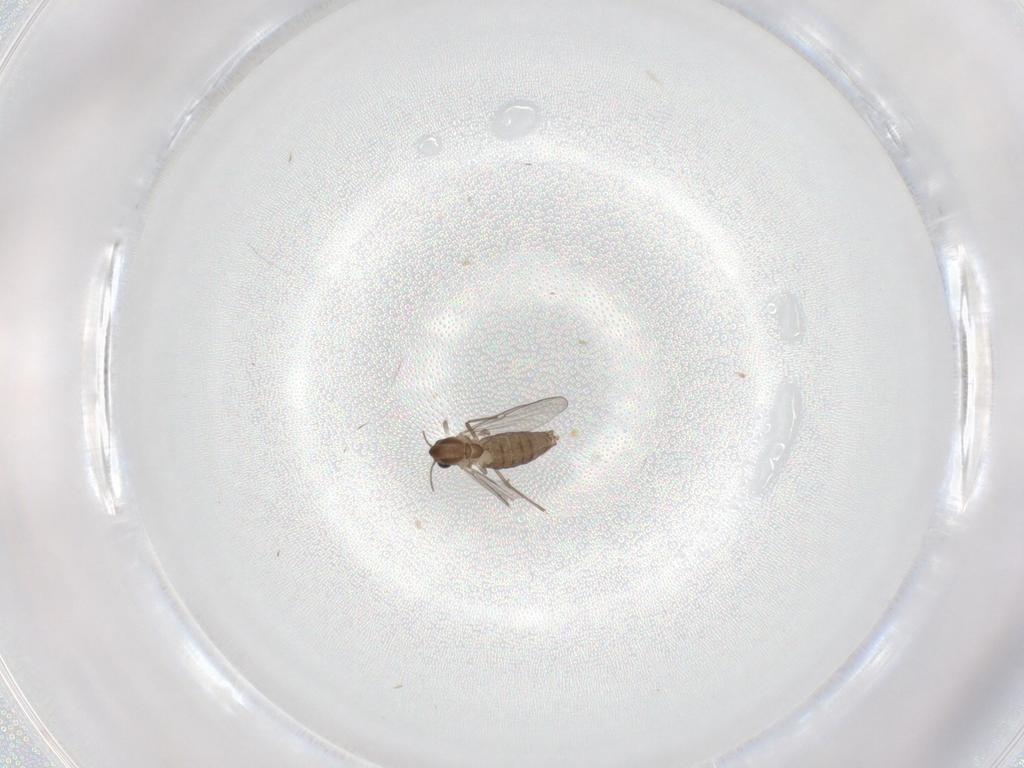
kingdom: Animalia
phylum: Arthropoda
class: Insecta
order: Diptera
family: Chironomidae
